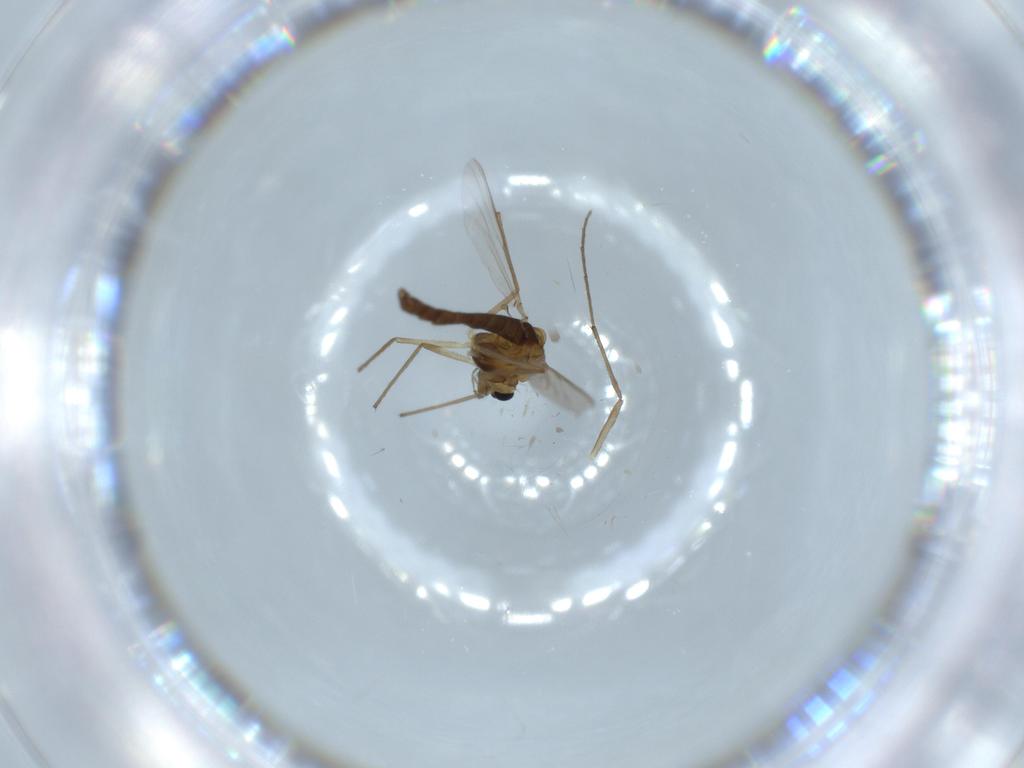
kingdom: Animalia
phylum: Arthropoda
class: Insecta
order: Diptera
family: Chironomidae
